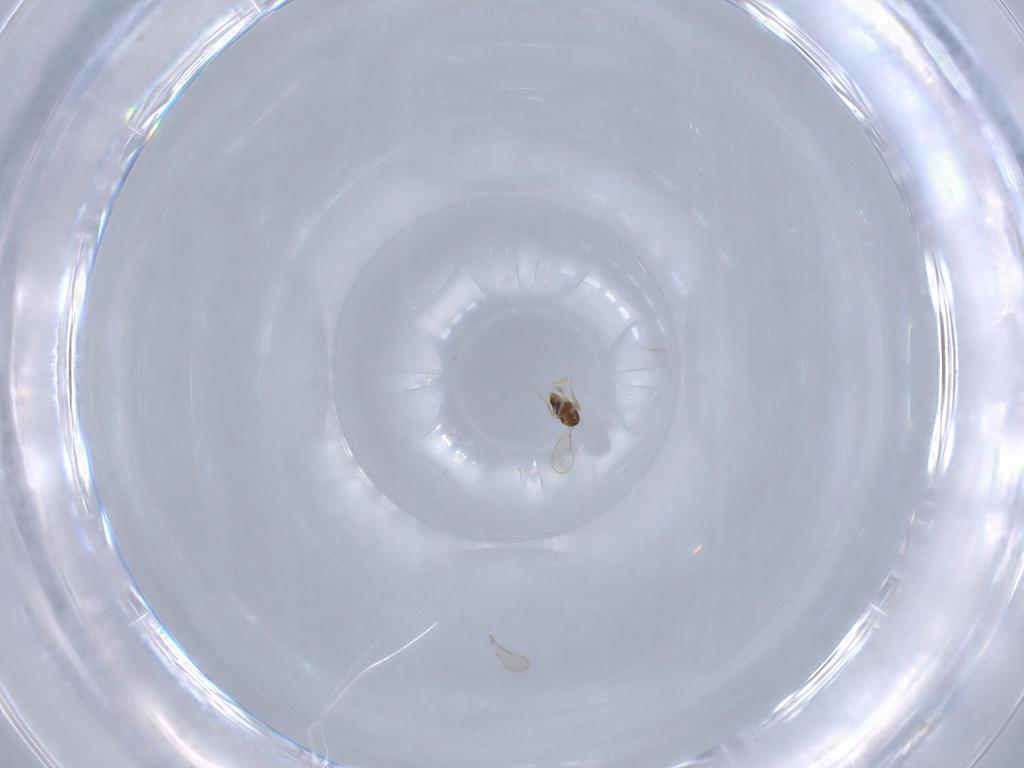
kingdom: Animalia
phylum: Arthropoda
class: Insecta
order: Hymenoptera
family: Aphelinidae
